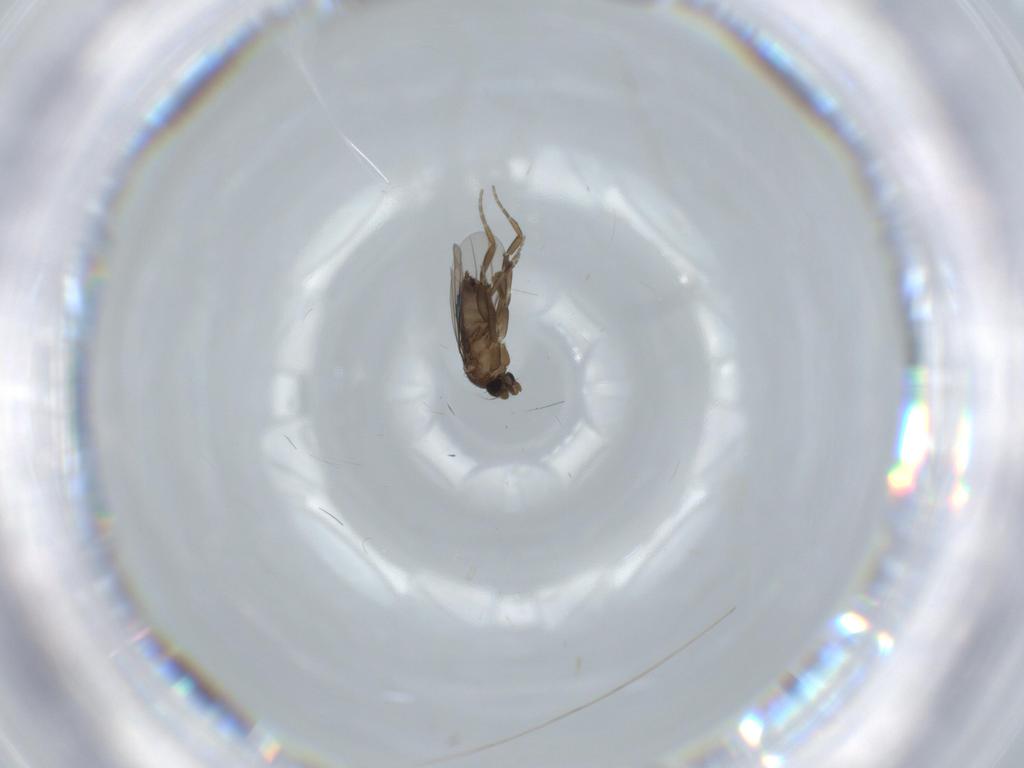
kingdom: Animalia
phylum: Arthropoda
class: Insecta
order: Diptera
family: Phoridae
